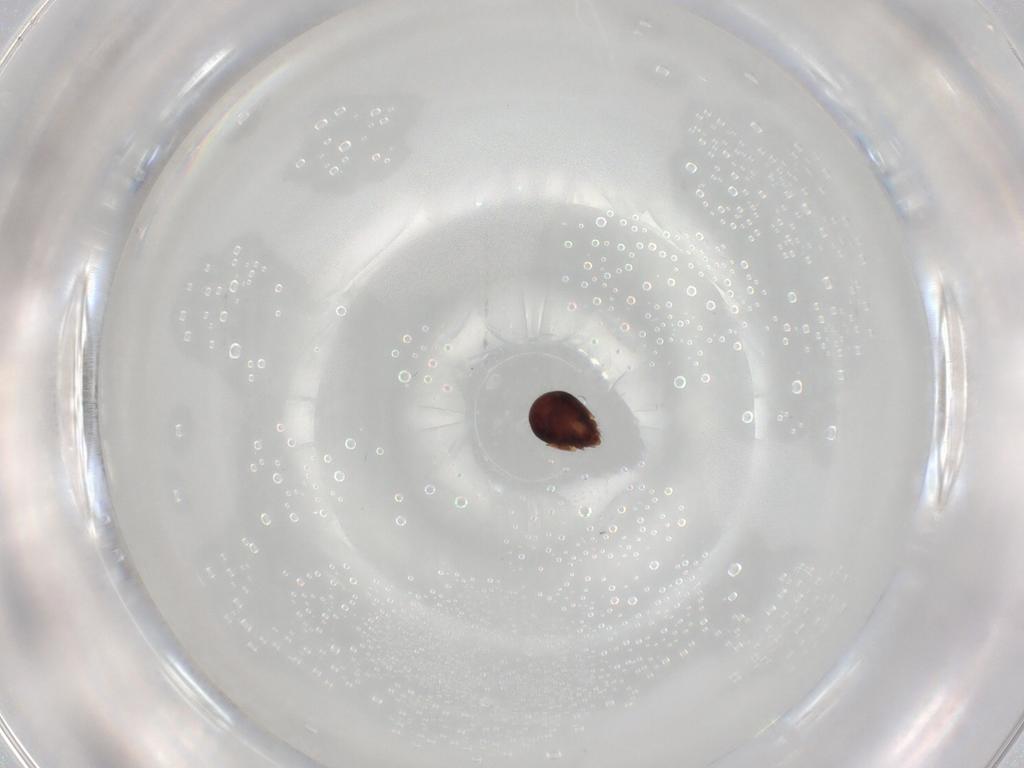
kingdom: Animalia
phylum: Arthropoda
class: Arachnida
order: Sarcoptiformes
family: Humerobatidae
